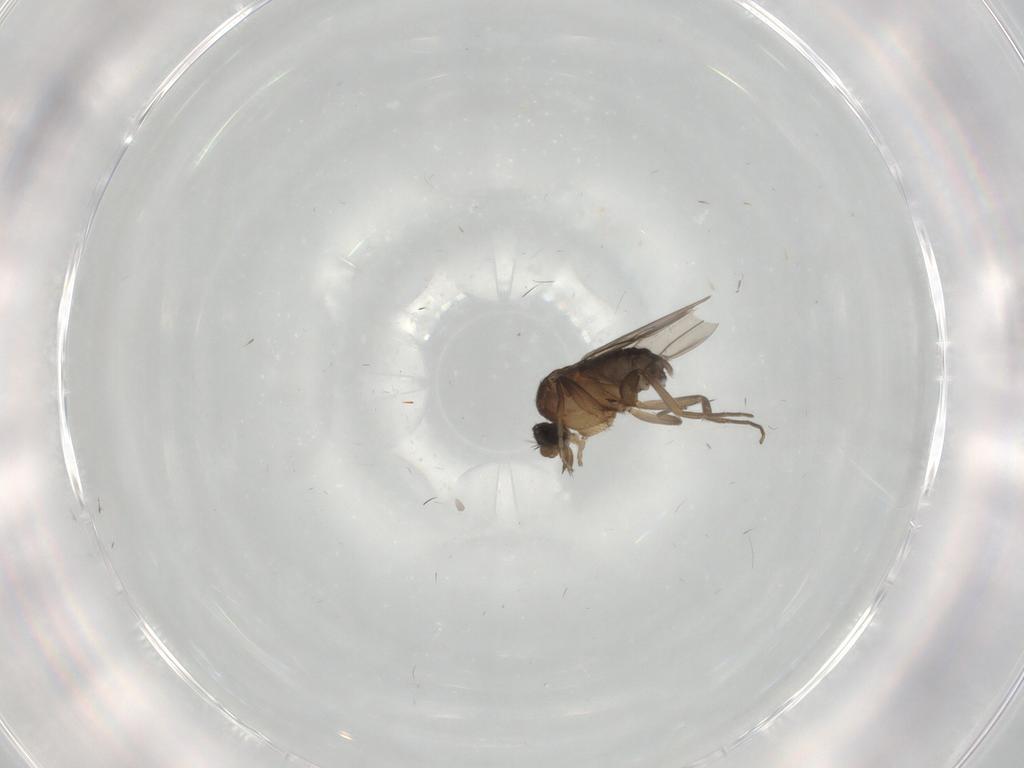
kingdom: Animalia
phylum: Arthropoda
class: Insecta
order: Diptera
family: Phoridae
